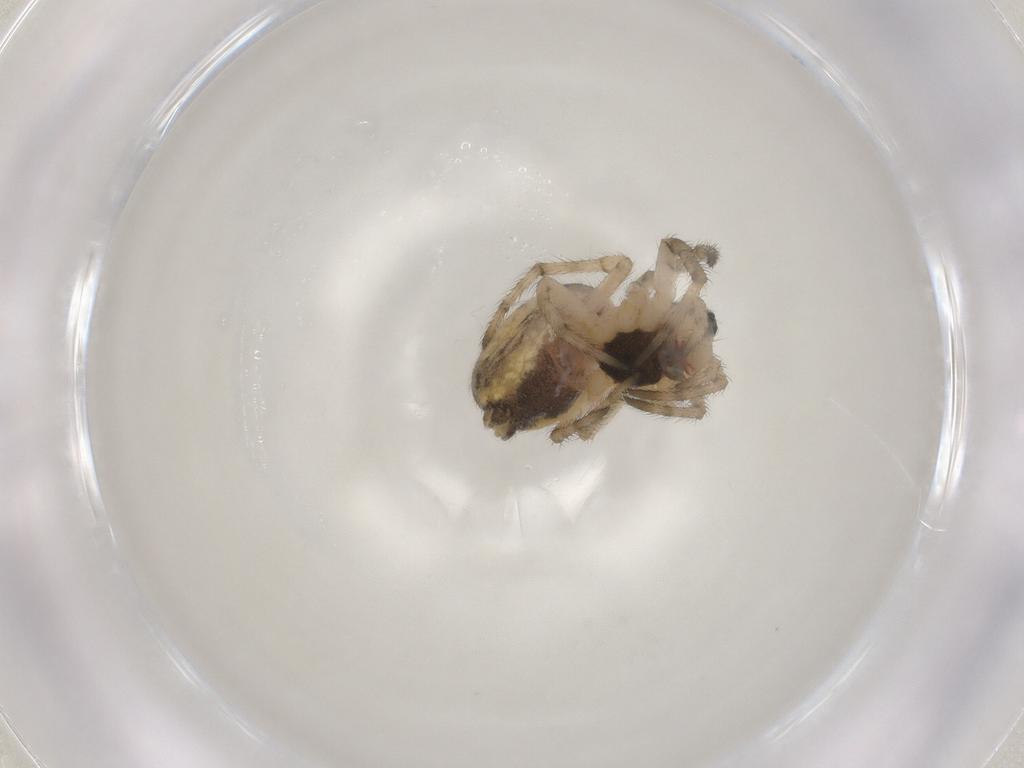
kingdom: Animalia
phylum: Arthropoda
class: Arachnida
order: Araneae
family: Araneidae
